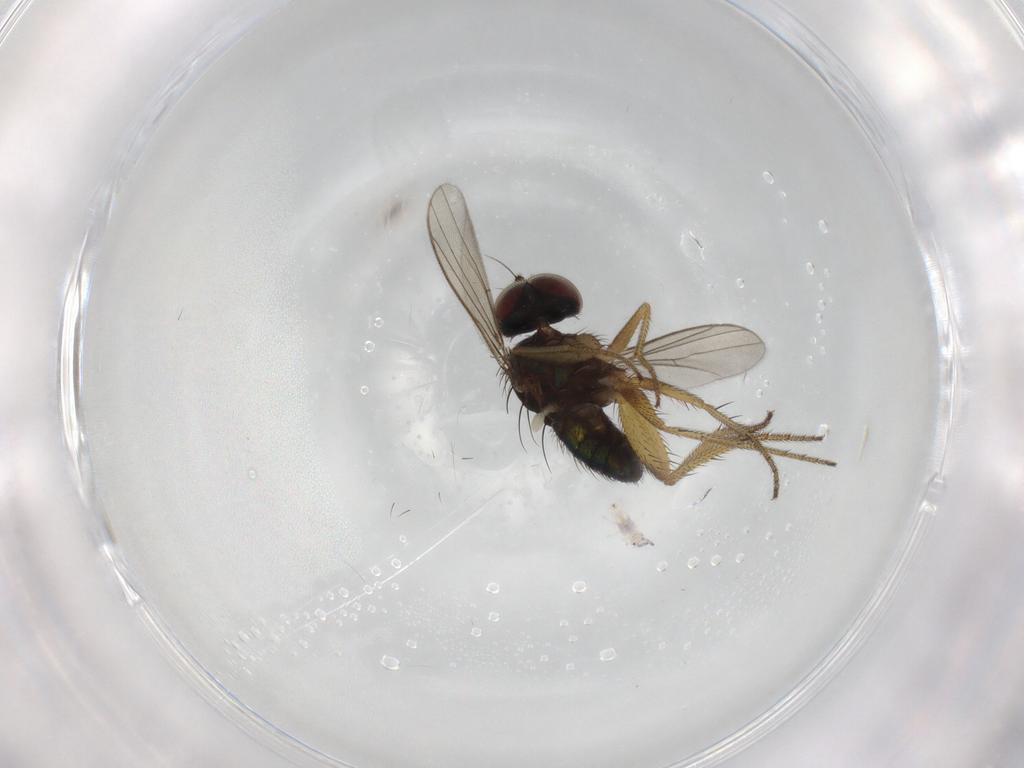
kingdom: Animalia
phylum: Arthropoda
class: Insecta
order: Diptera
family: Dolichopodidae
